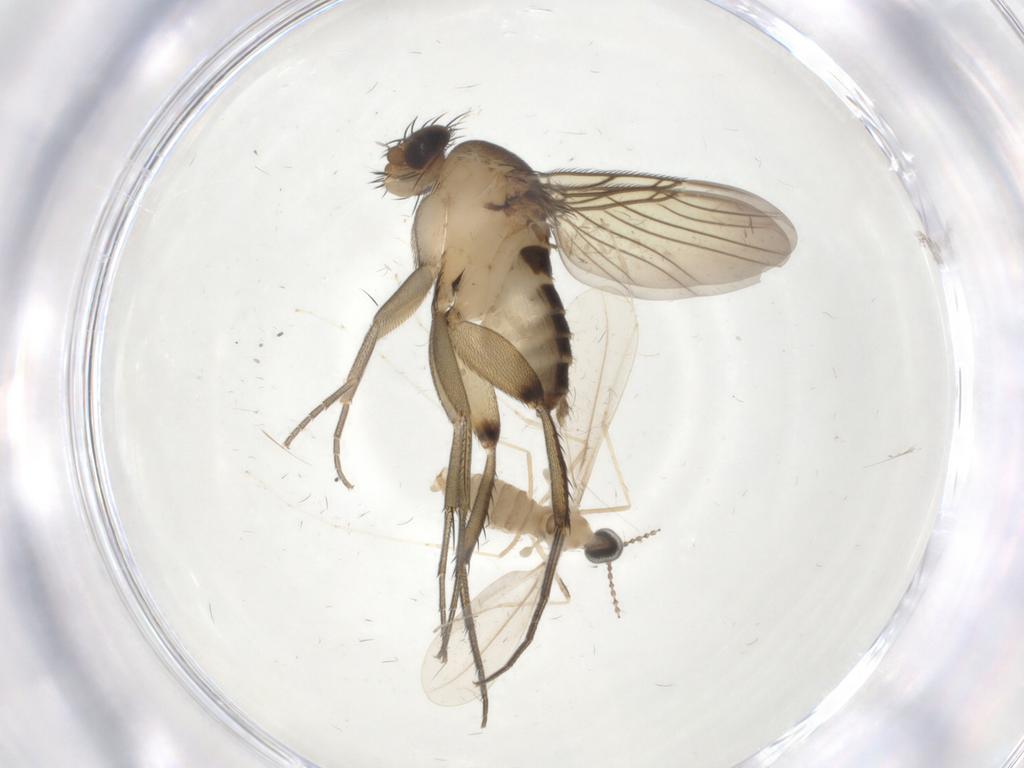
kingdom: Animalia
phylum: Arthropoda
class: Insecta
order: Diptera
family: Cecidomyiidae
